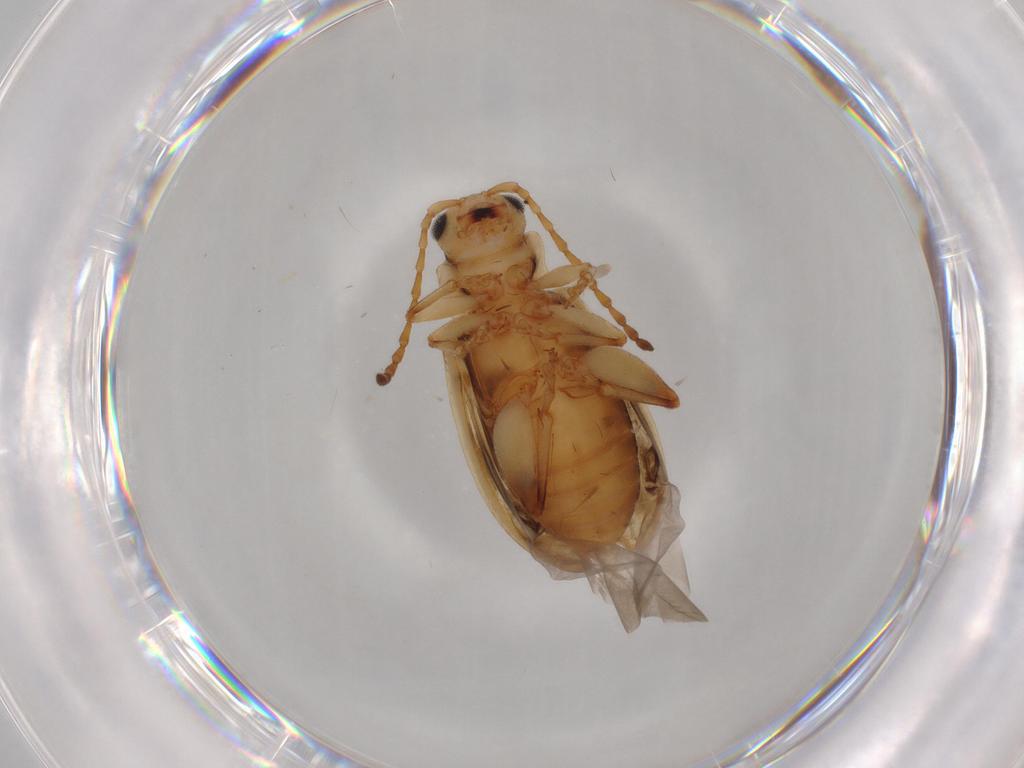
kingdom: Animalia
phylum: Arthropoda
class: Insecta
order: Coleoptera
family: Chrysomelidae
